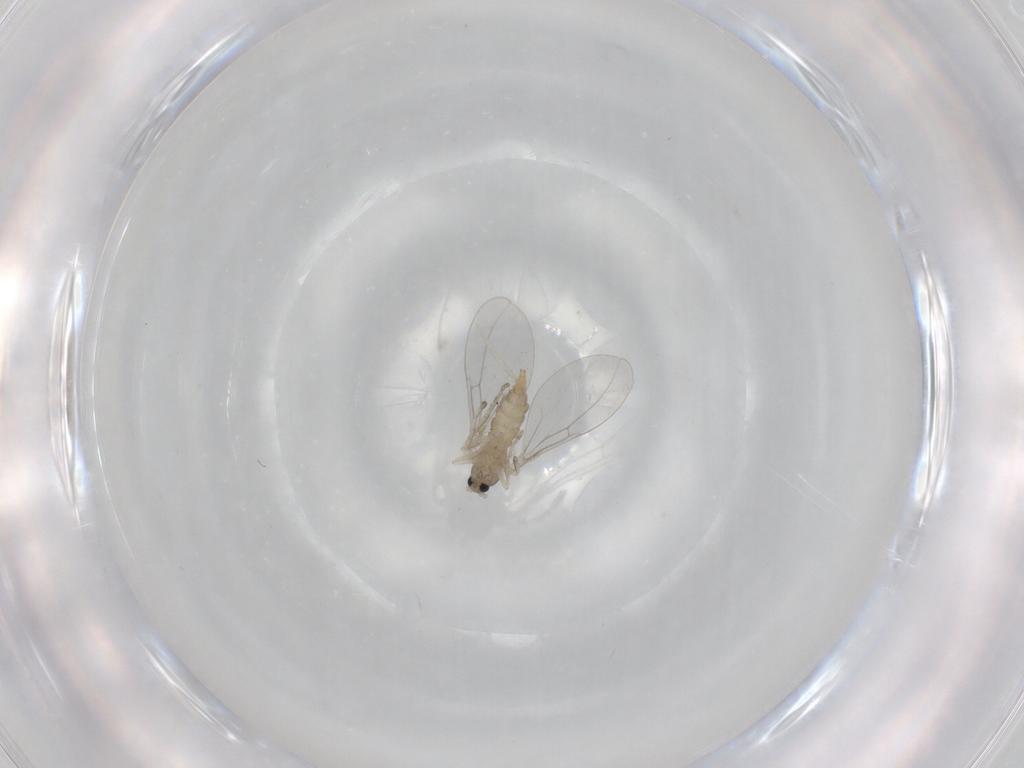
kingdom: Animalia
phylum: Arthropoda
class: Insecta
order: Diptera
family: Cecidomyiidae
